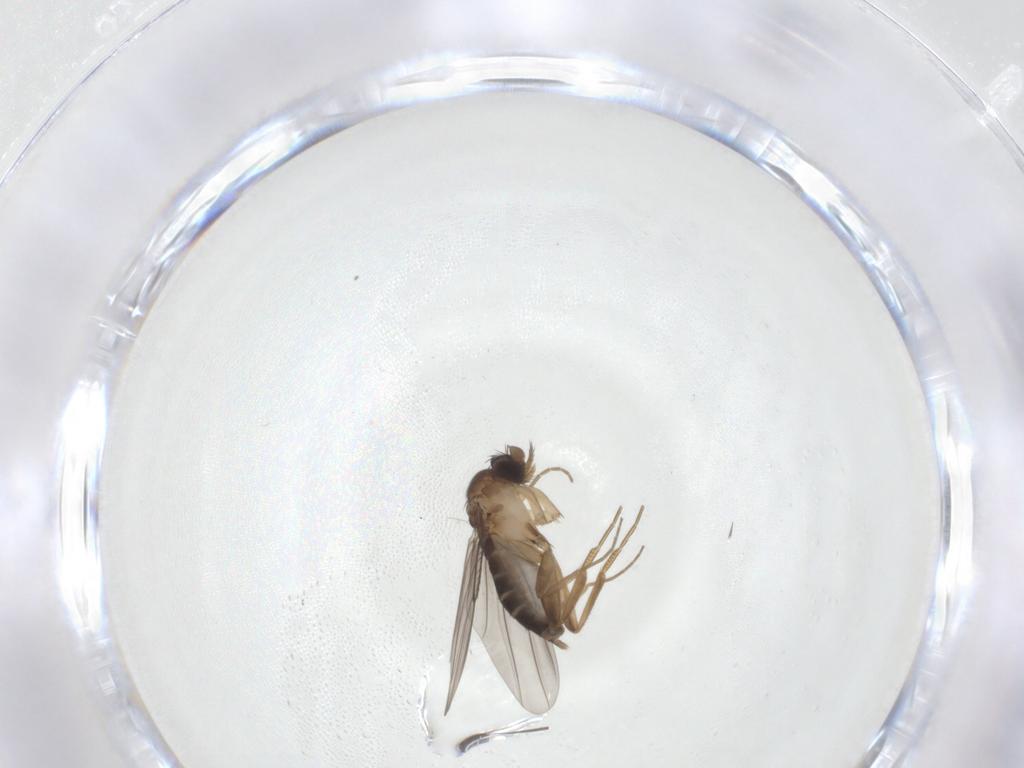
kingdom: Animalia
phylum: Arthropoda
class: Insecta
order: Diptera
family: Phoridae
